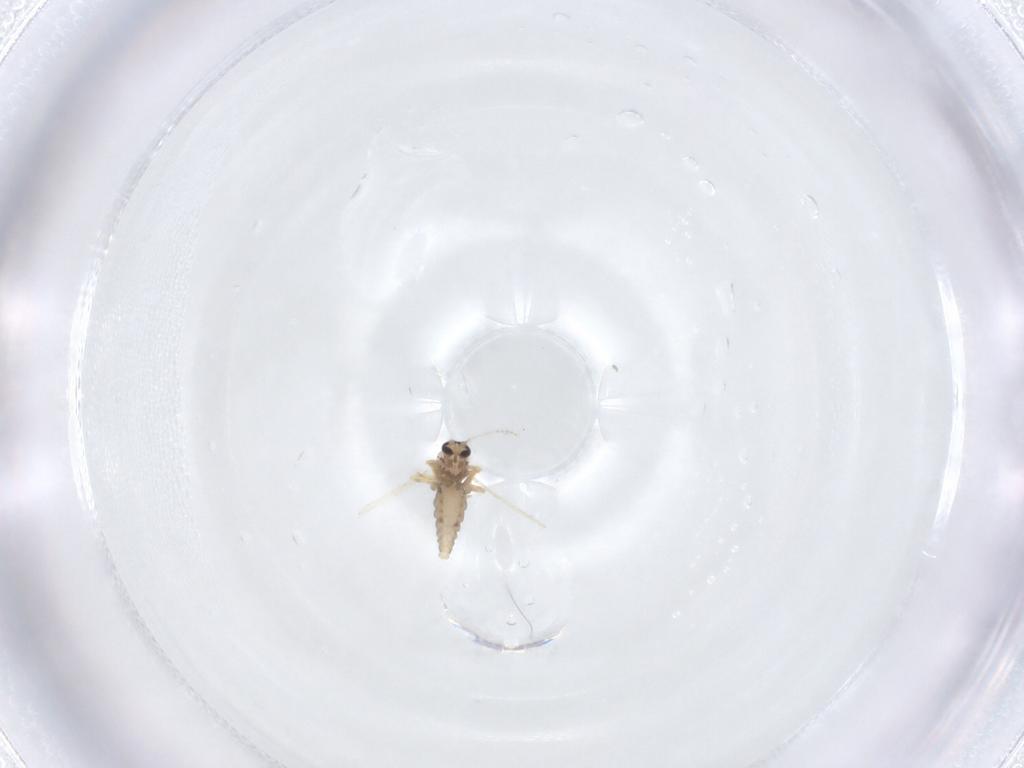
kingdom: Animalia
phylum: Arthropoda
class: Insecta
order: Diptera
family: Ceratopogonidae
